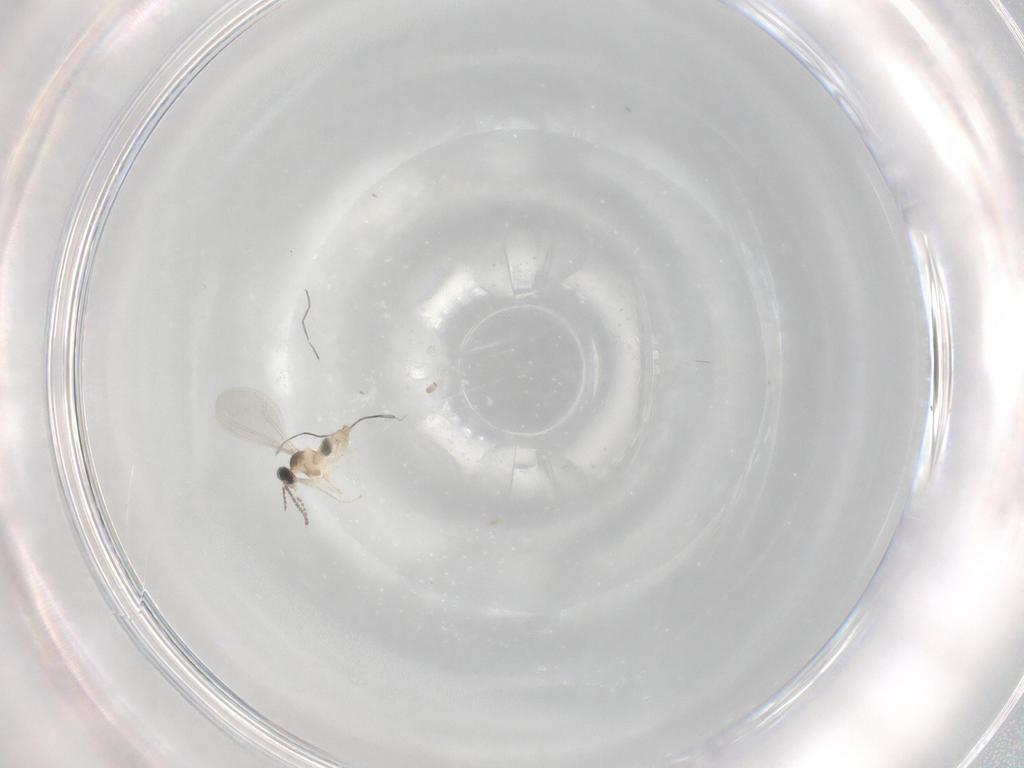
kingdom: Animalia
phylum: Arthropoda
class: Insecta
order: Diptera
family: Cecidomyiidae
